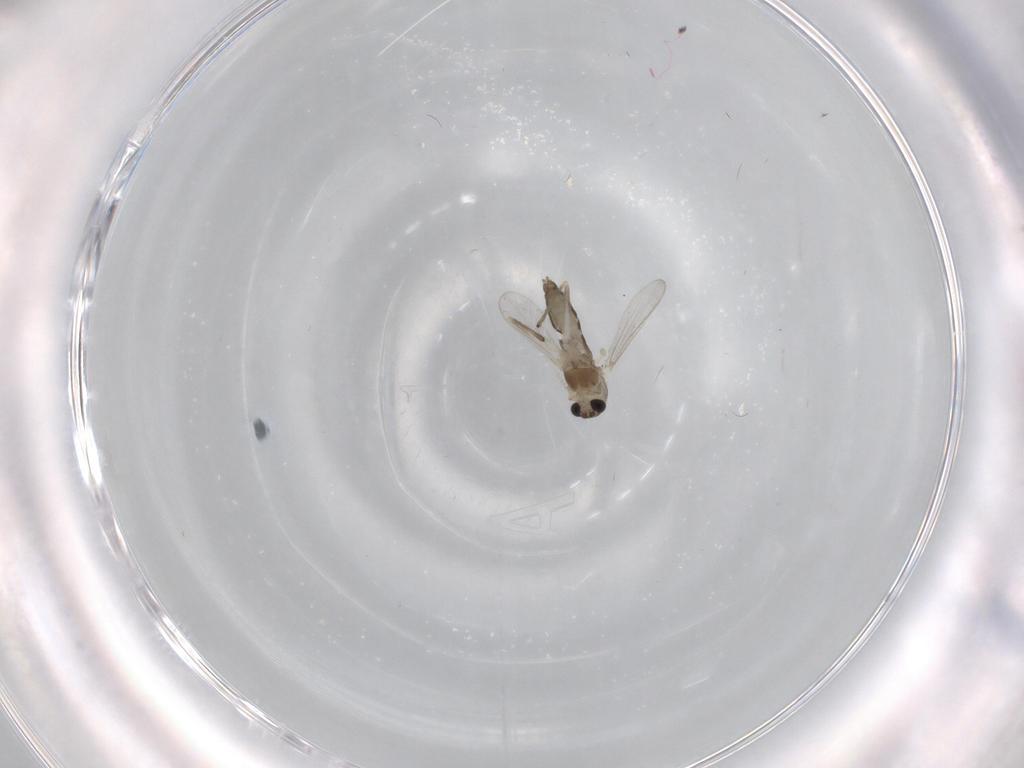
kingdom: Animalia
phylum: Arthropoda
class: Insecta
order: Diptera
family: Chironomidae
